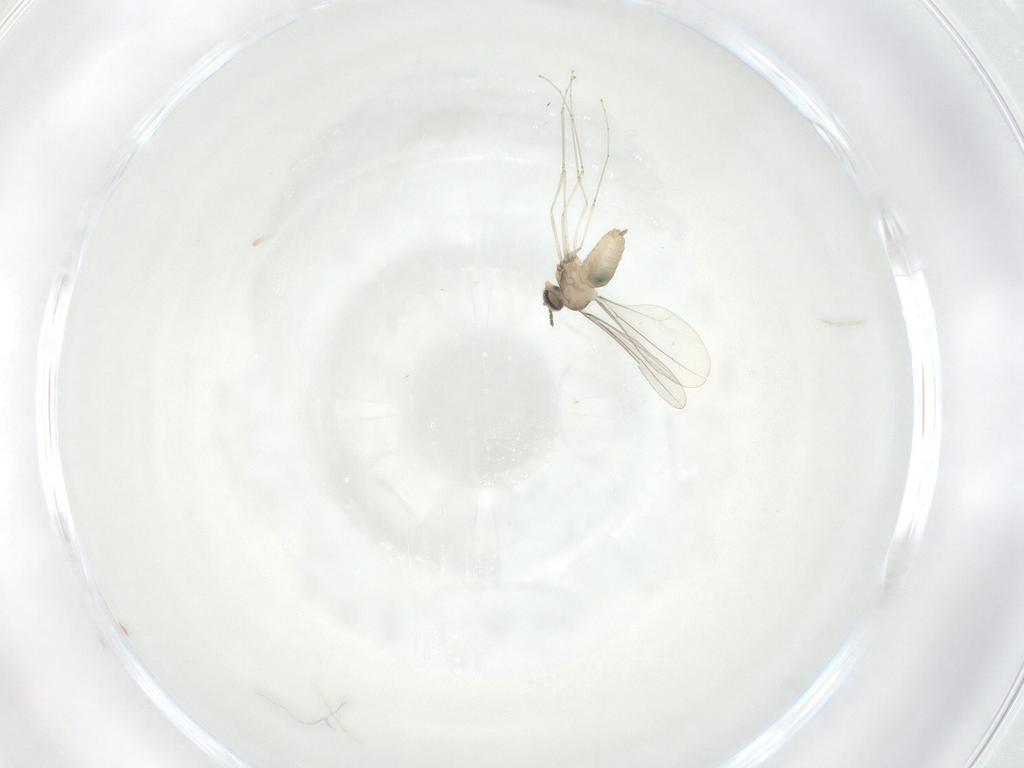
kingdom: Animalia
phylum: Arthropoda
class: Insecta
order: Diptera
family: Cecidomyiidae
